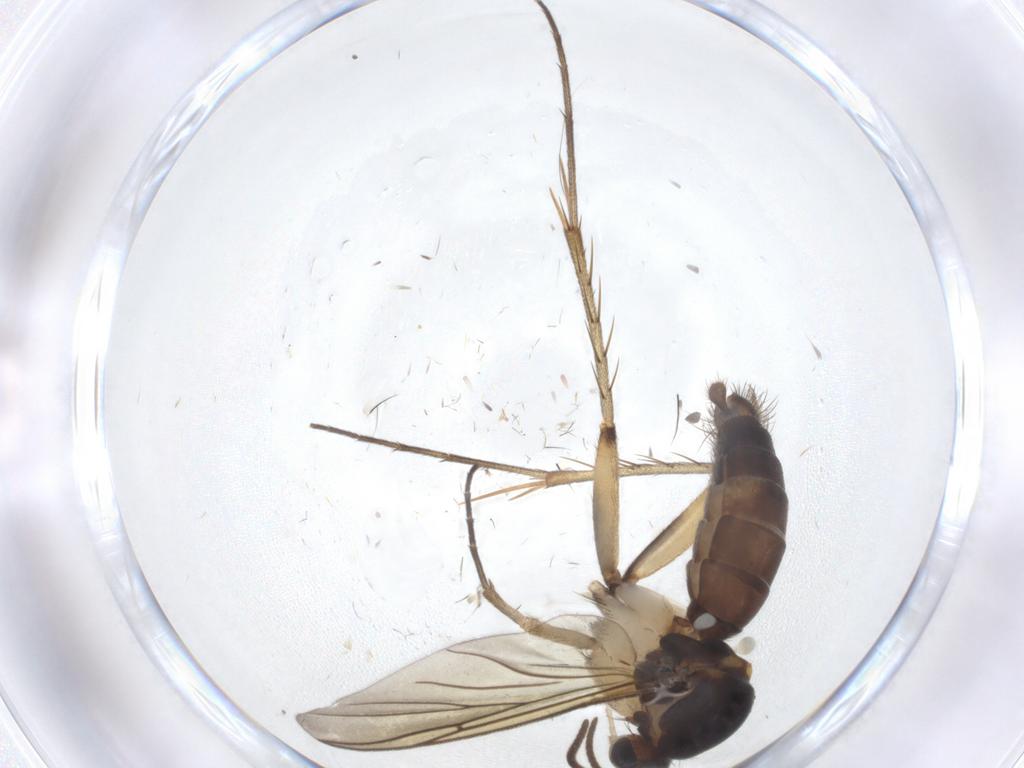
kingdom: Animalia
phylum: Arthropoda
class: Insecta
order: Diptera
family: Mycetophilidae
